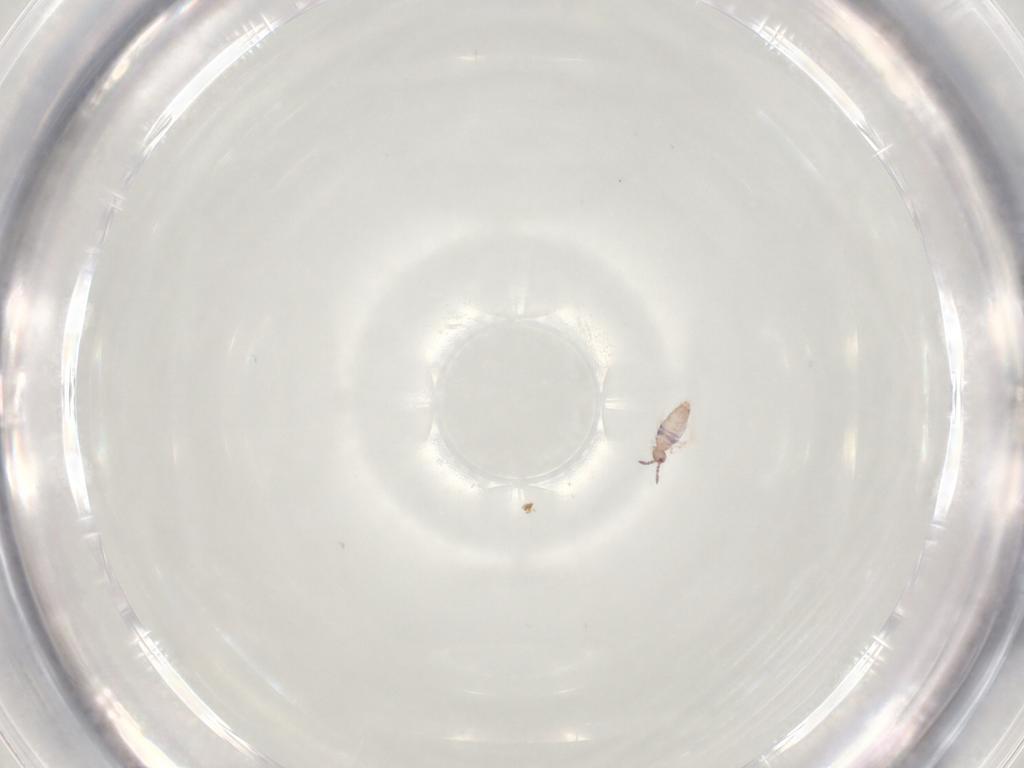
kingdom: Animalia
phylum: Arthropoda
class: Collembola
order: Entomobryomorpha
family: Entomobryidae
